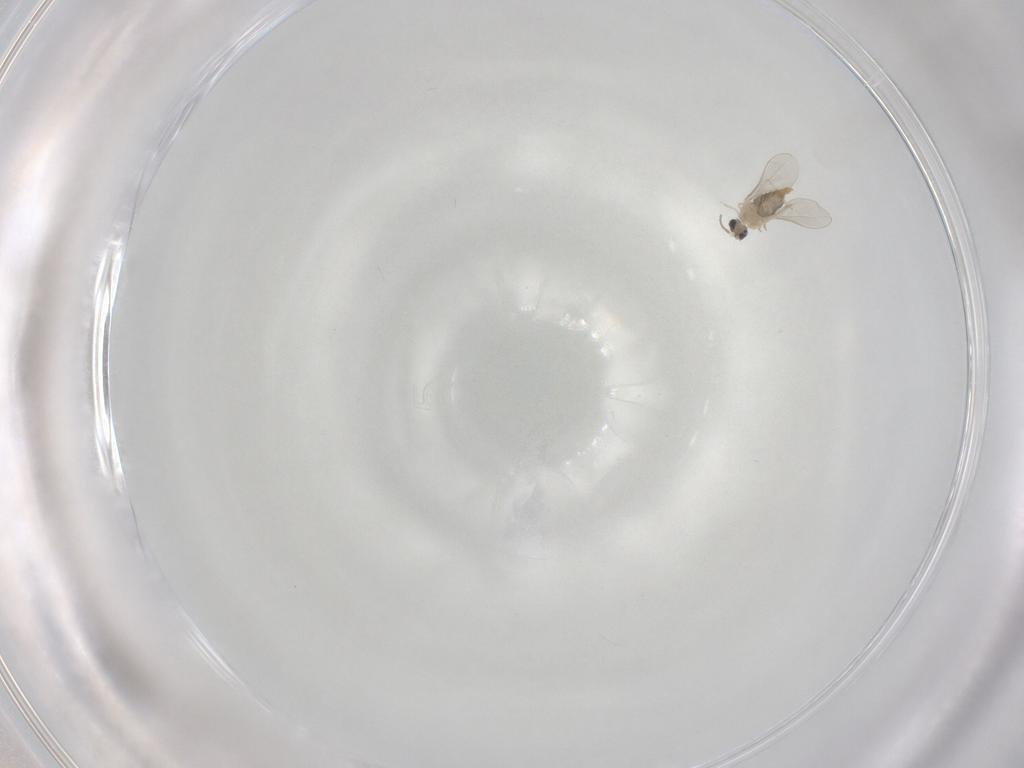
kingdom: Animalia
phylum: Arthropoda
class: Insecta
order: Diptera
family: Cecidomyiidae
